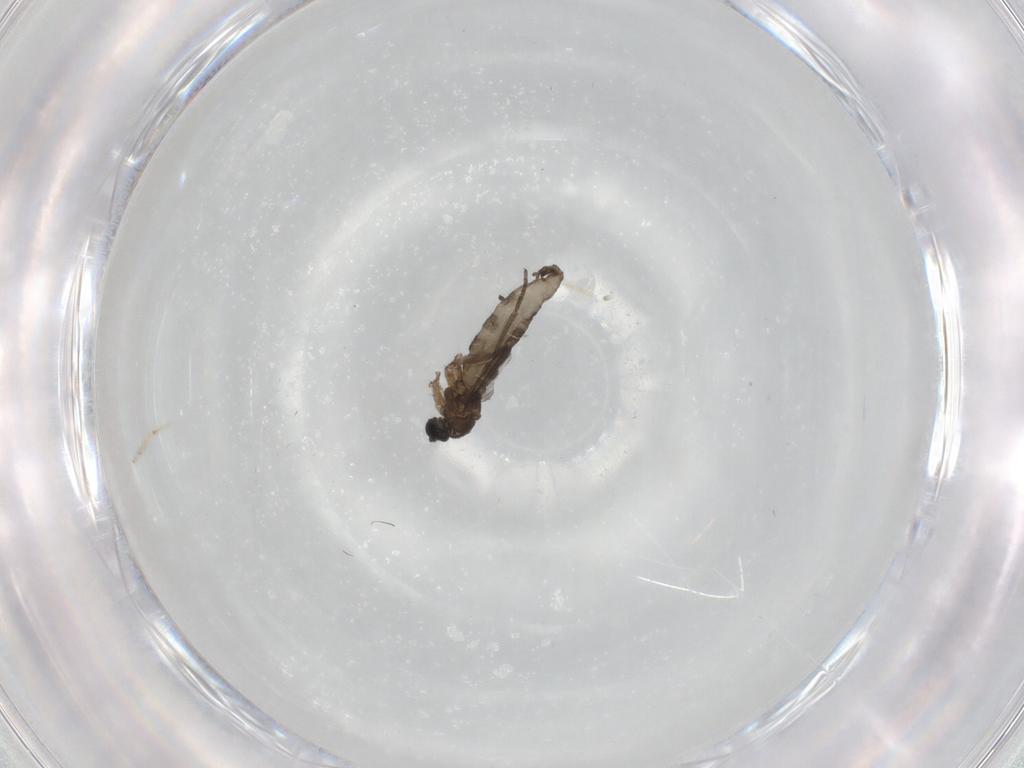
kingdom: Animalia
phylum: Arthropoda
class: Insecta
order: Diptera
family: Sciaridae
